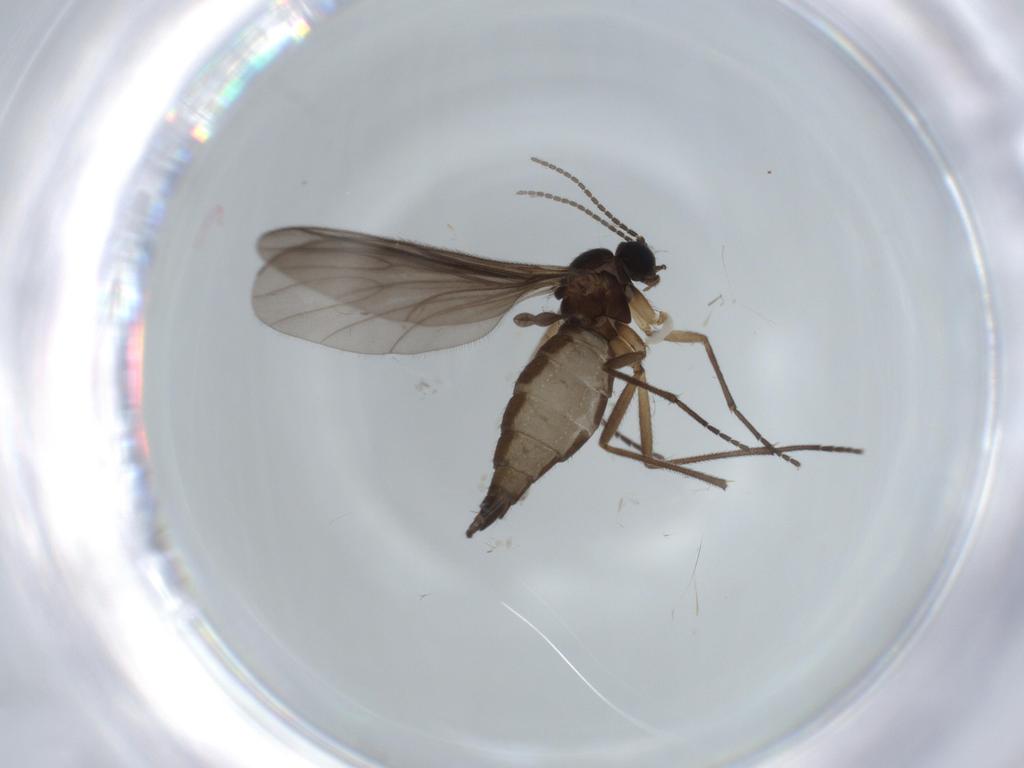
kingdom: Animalia
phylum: Arthropoda
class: Insecta
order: Diptera
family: Sciaridae
